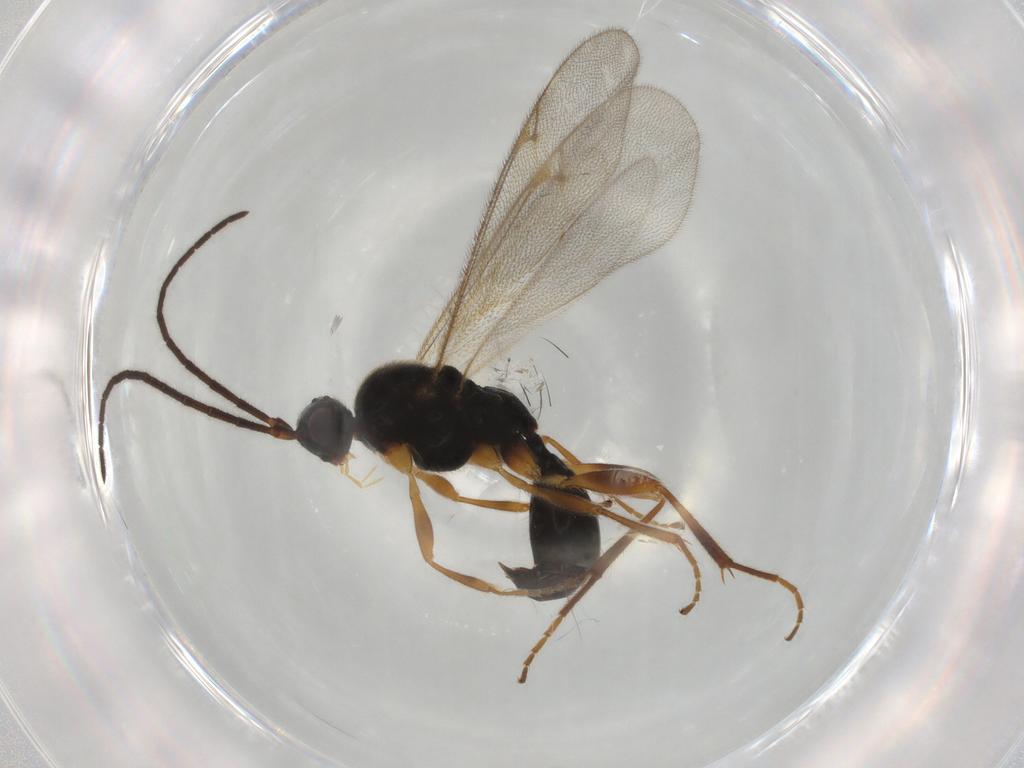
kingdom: Animalia
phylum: Arthropoda
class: Insecta
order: Hymenoptera
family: Proctotrupidae
